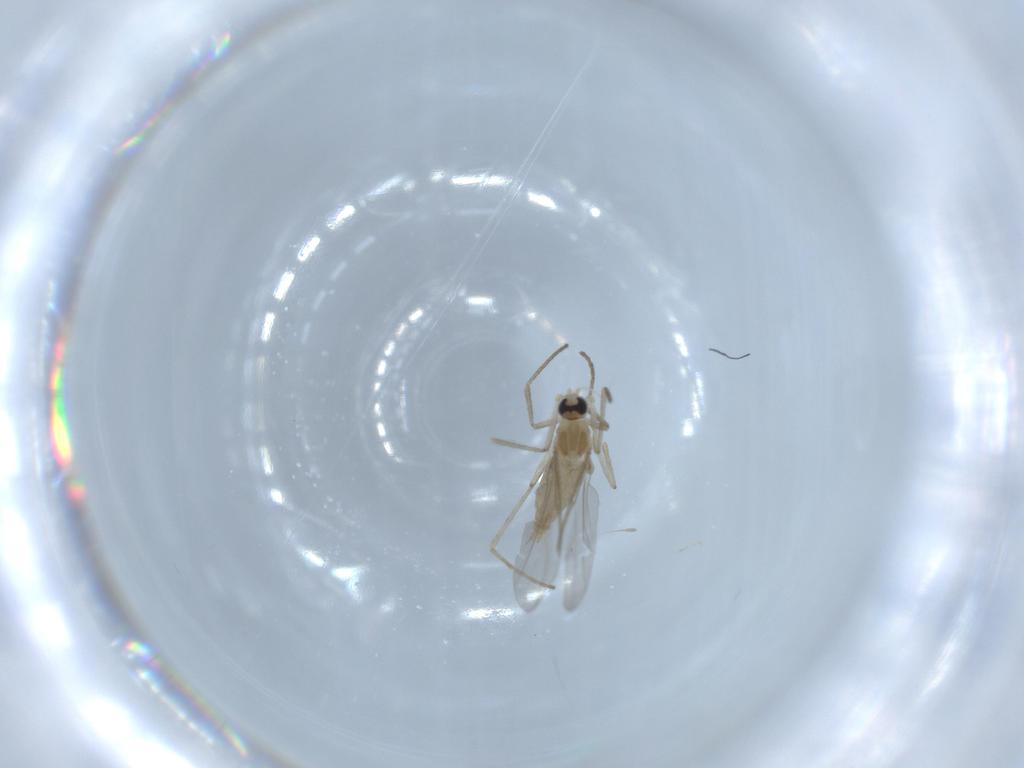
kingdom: Animalia
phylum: Arthropoda
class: Insecta
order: Diptera
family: Cecidomyiidae
